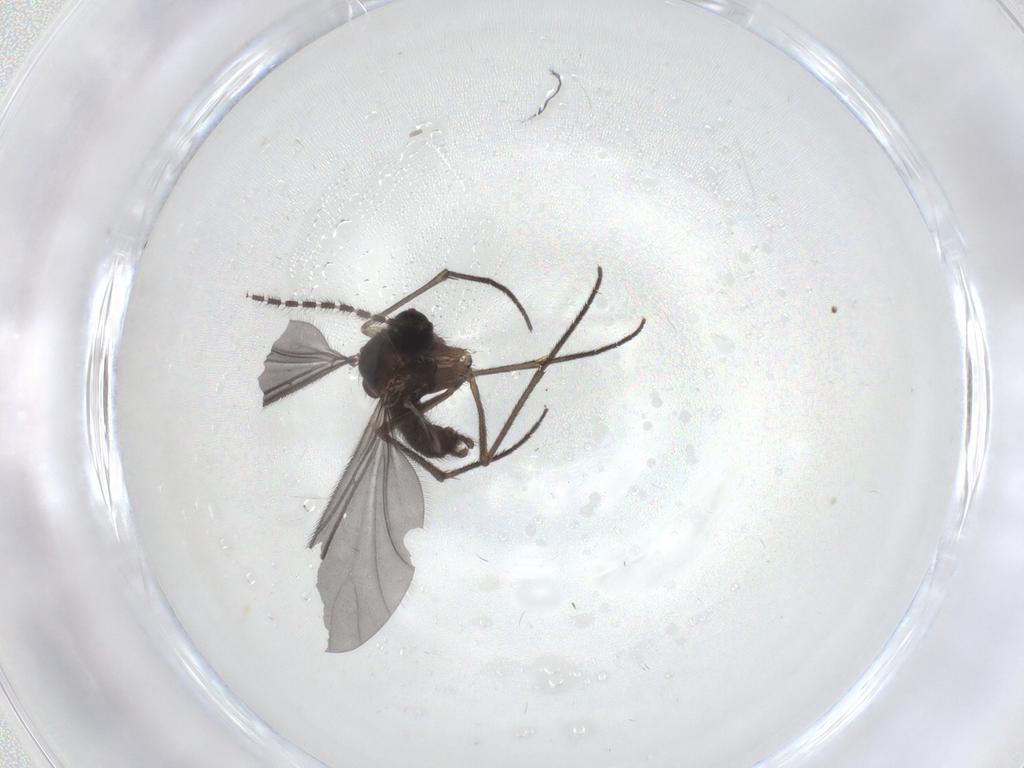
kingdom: Animalia
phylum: Arthropoda
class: Insecta
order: Diptera
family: Sciaridae
